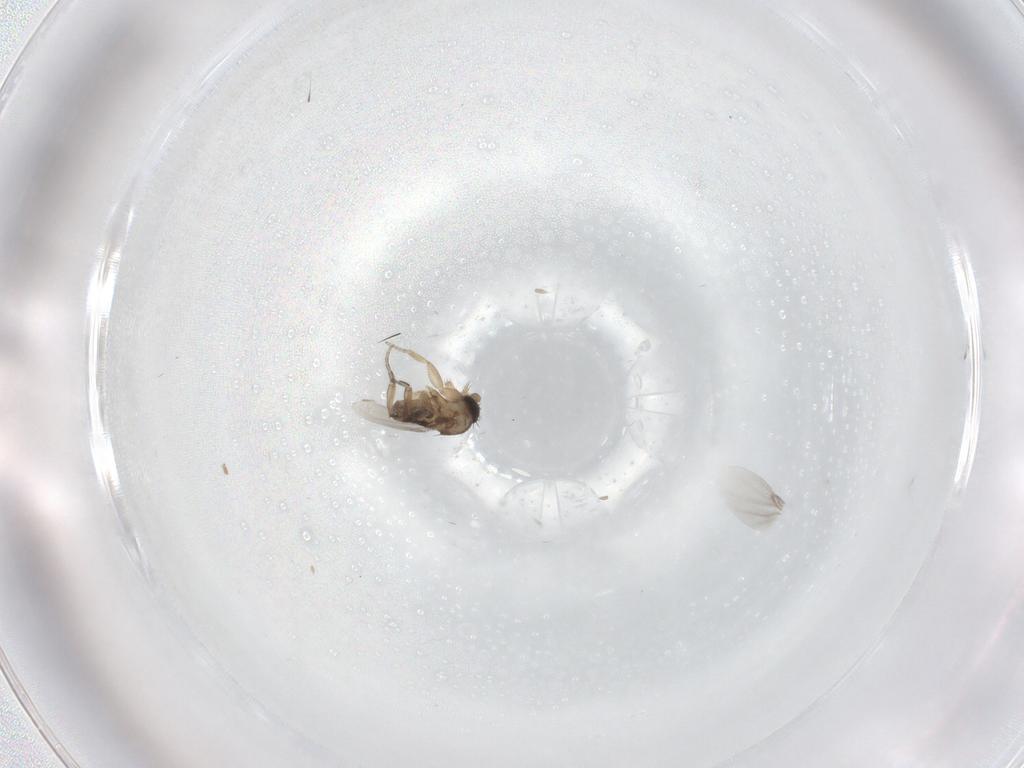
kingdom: Animalia
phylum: Arthropoda
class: Insecta
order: Diptera
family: Phoridae
